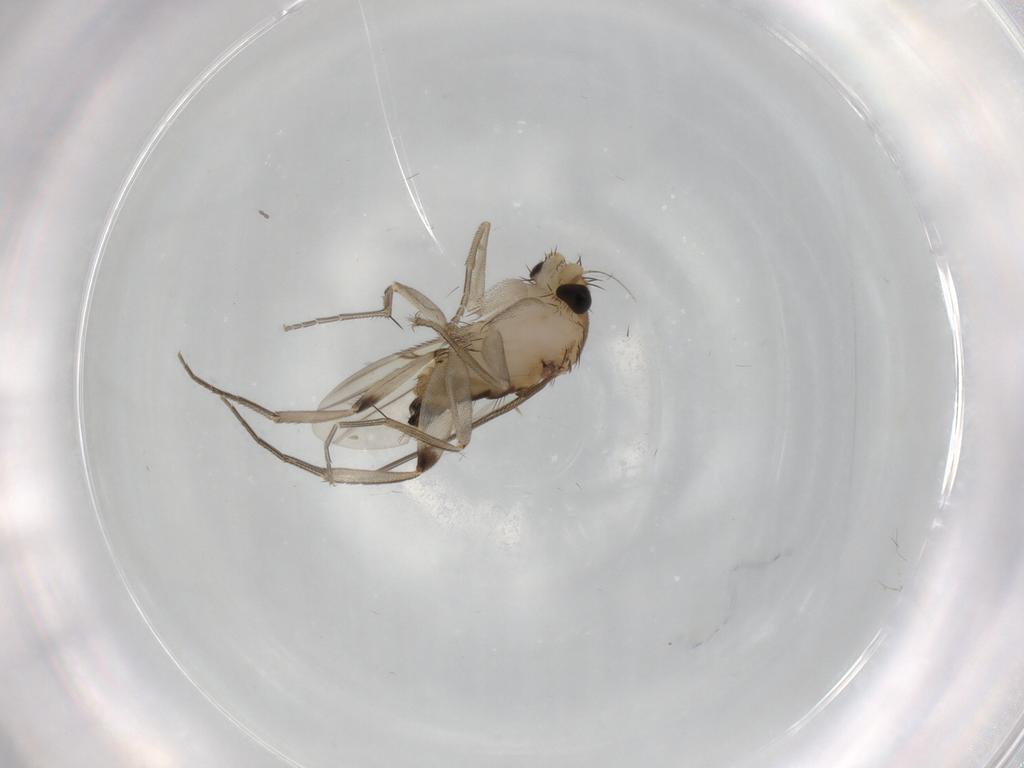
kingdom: Animalia
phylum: Arthropoda
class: Insecta
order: Diptera
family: Phoridae
